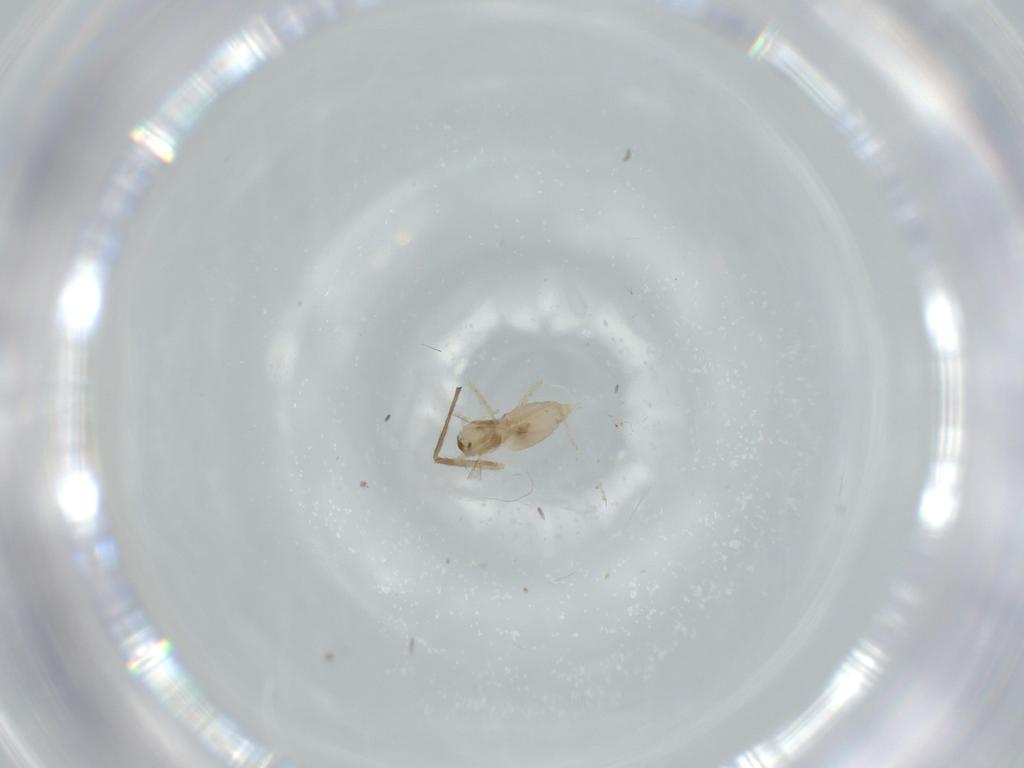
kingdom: Animalia
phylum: Arthropoda
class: Insecta
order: Diptera
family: Cecidomyiidae
